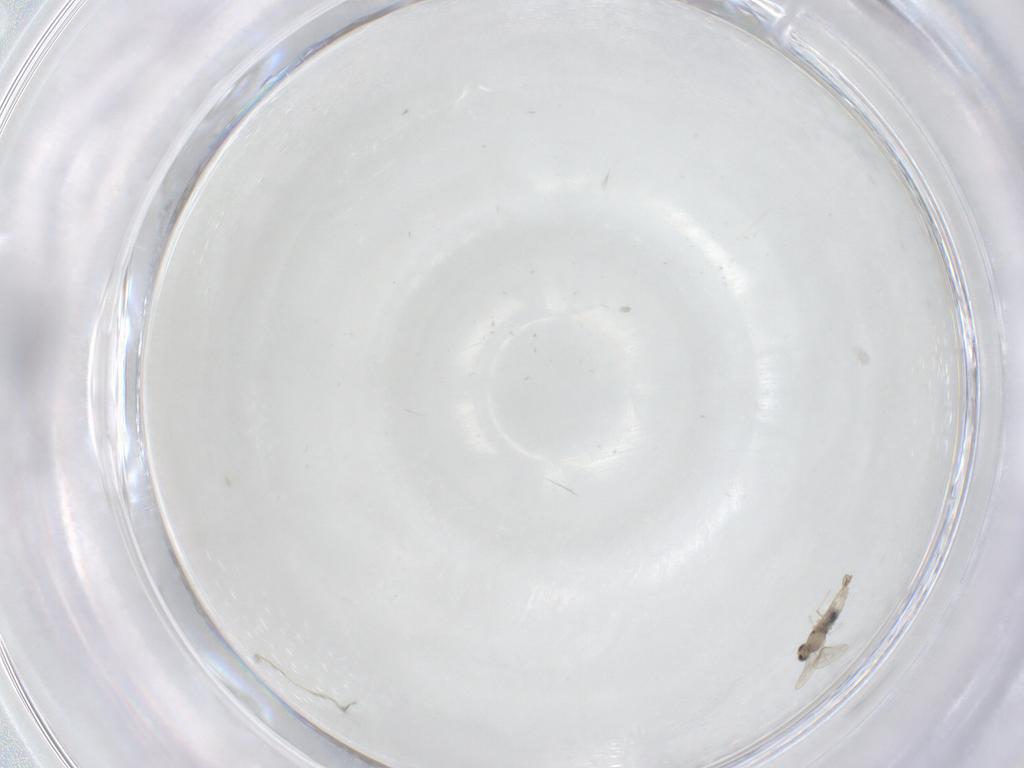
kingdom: Animalia
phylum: Arthropoda
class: Insecta
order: Diptera
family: Cecidomyiidae
